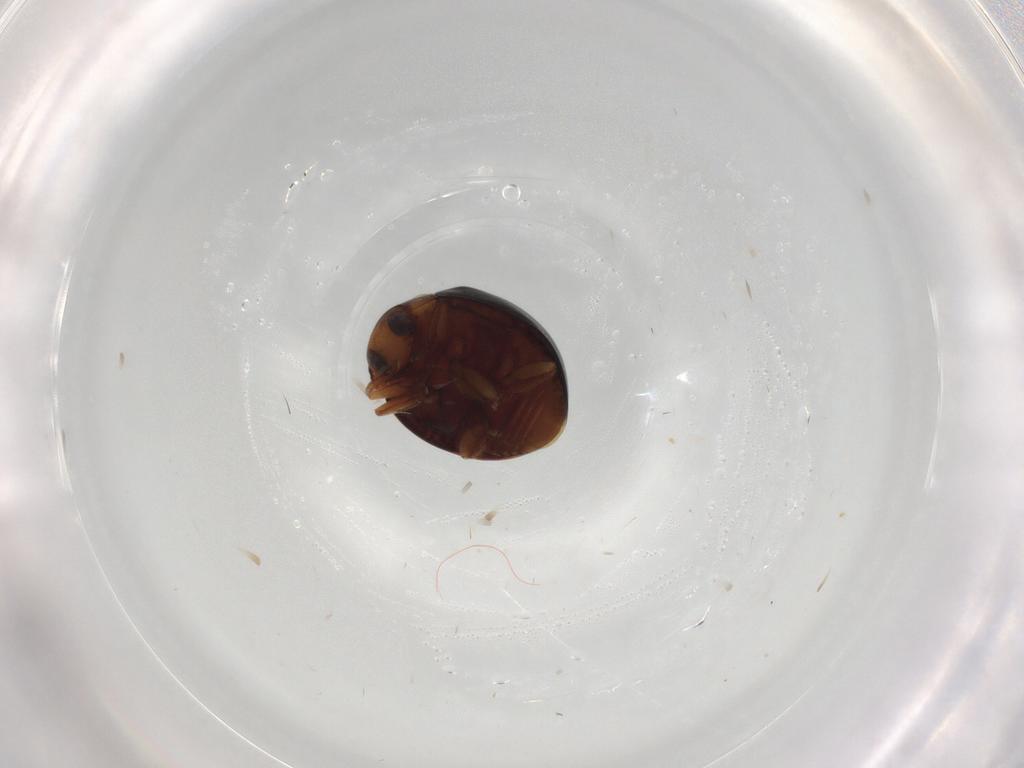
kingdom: Animalia
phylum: Arthropoda
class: Insecta
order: Coleoptera
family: Coccinellidae
